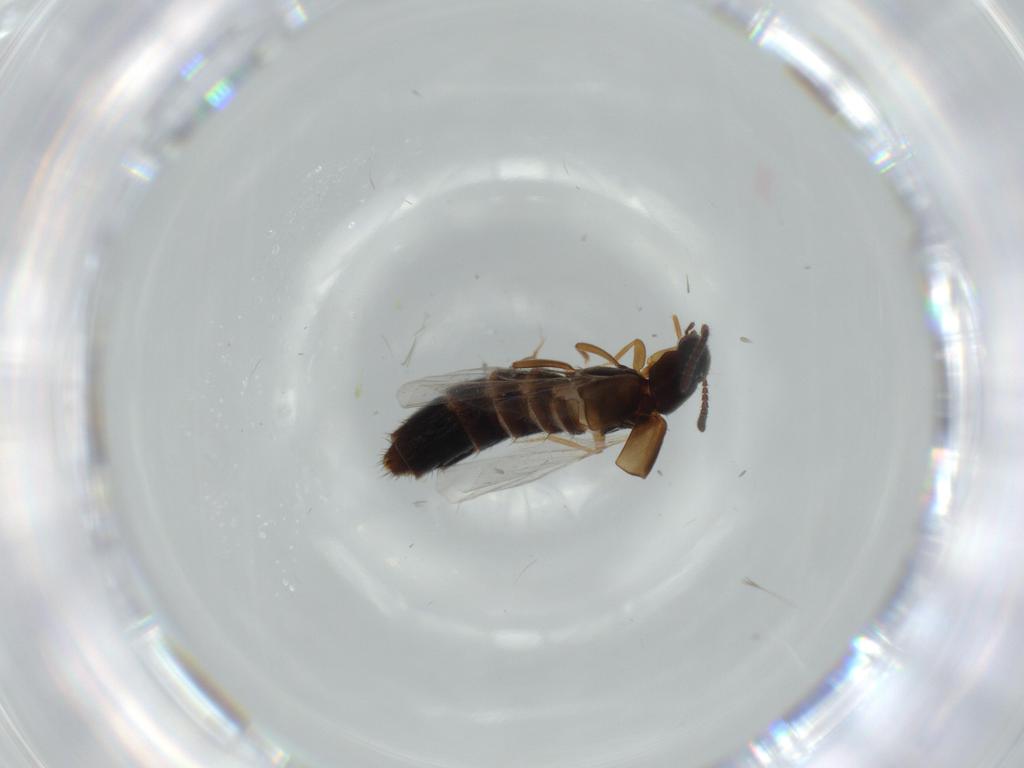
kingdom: Animalia
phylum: Arthropoda
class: Insecta
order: Coleoptera
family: Coccinellidae
